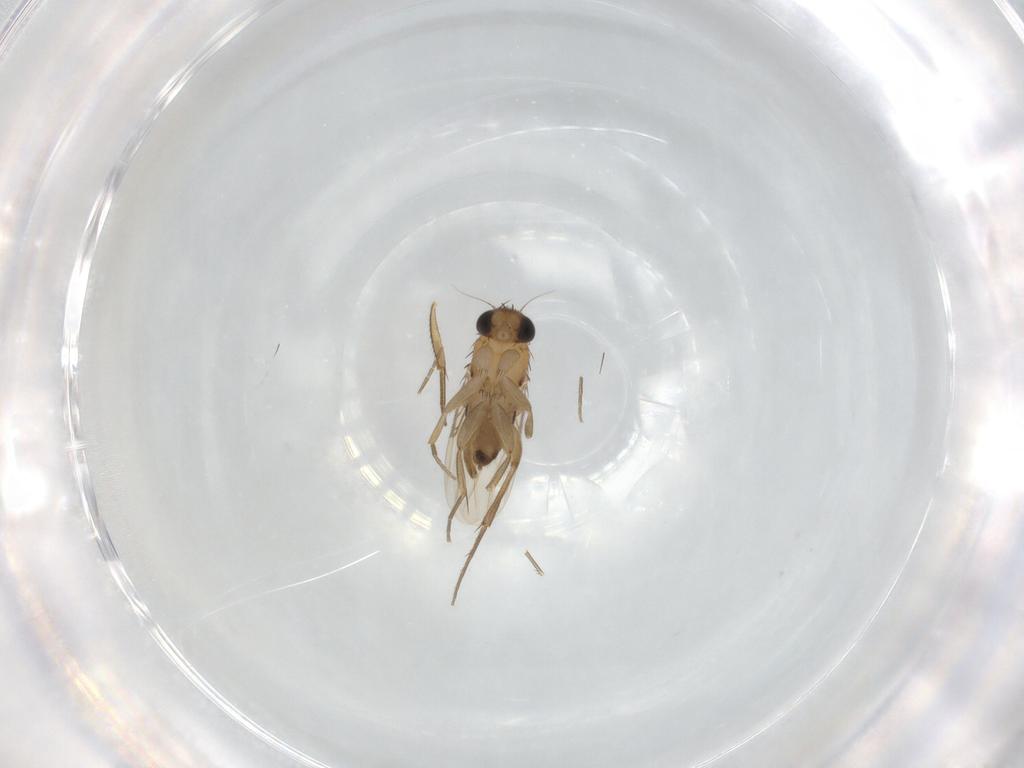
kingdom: Animalia
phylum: Arthropoda
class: Insecta
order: Diptera
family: Phoridae
